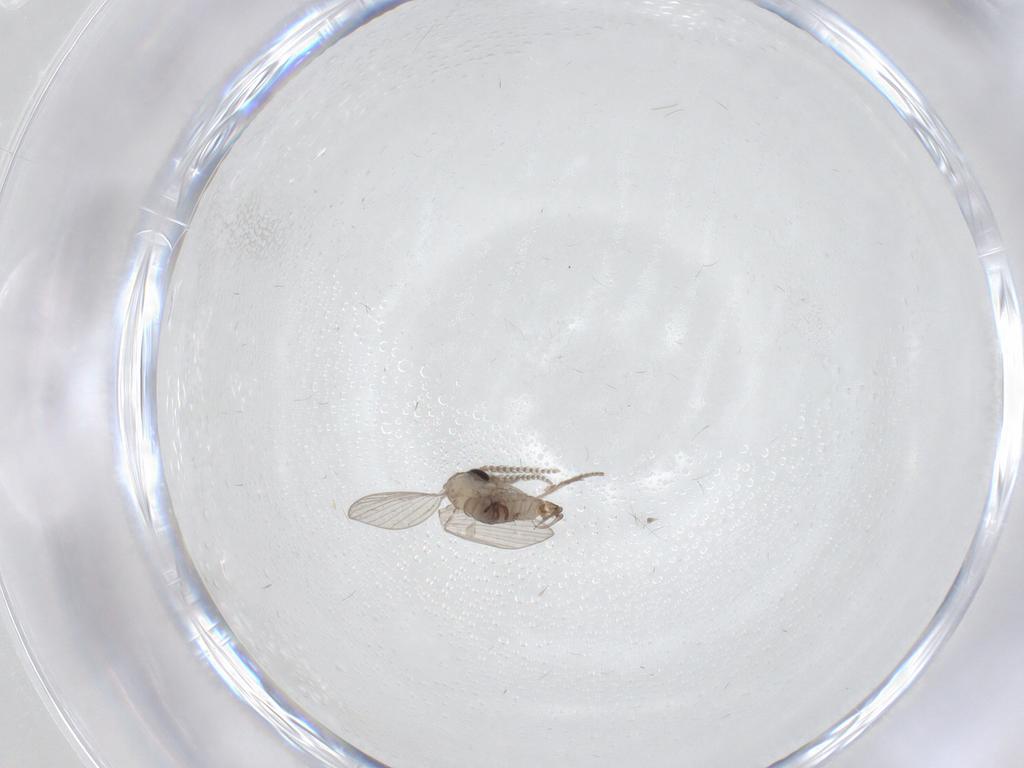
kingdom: Animalia
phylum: Arthropoda
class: Insecta
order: Diptera
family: Psychodidae
